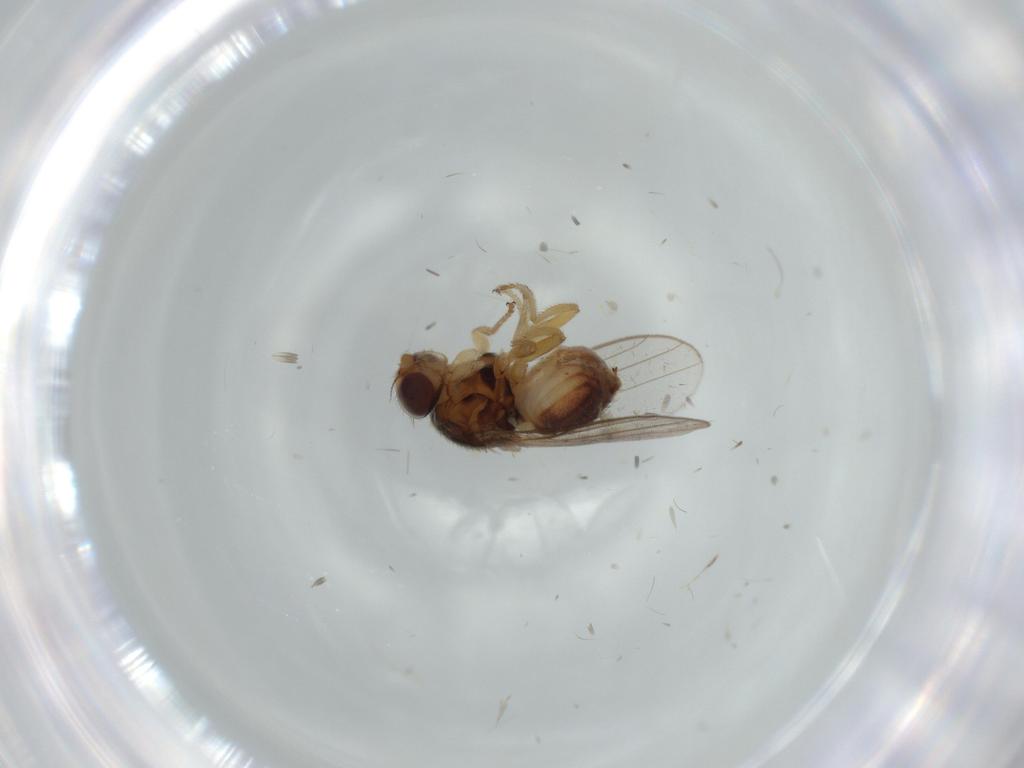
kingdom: Animalia
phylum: Arthropoda
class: Insecta
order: Diptera
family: Chloropidae
